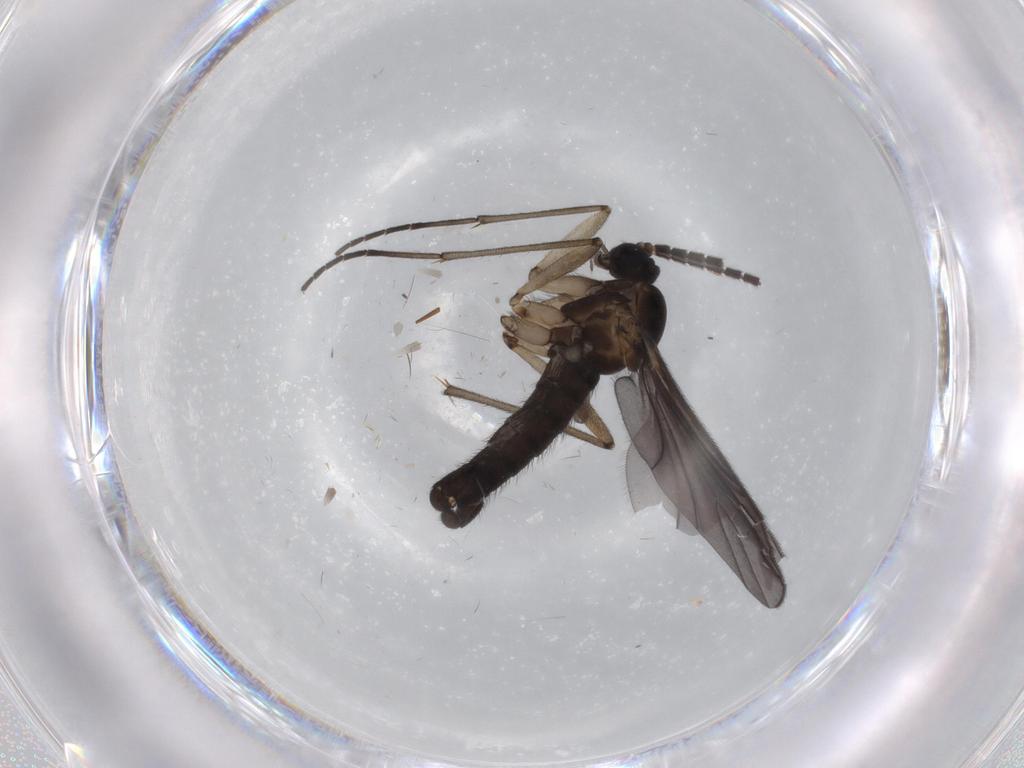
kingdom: Animalia
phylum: Arthropoda
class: Insecta
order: Diptera
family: Sciaridae
